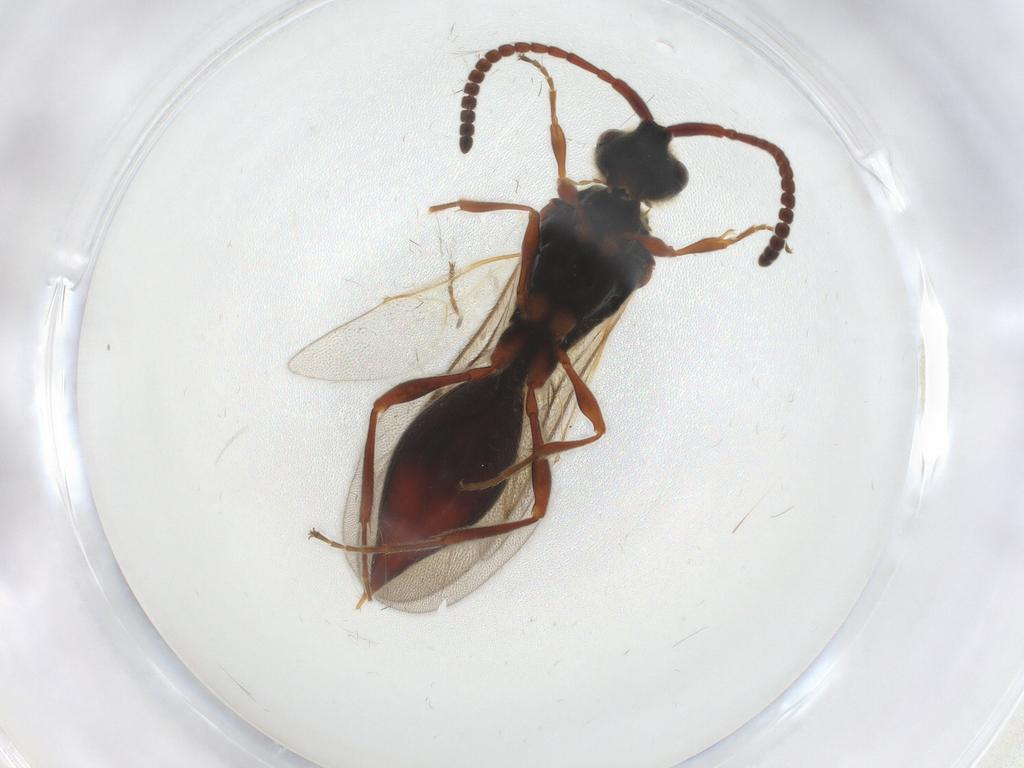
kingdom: Animalia
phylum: Arthropoda
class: Insecta
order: Hymenoptera
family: Diapriidae
